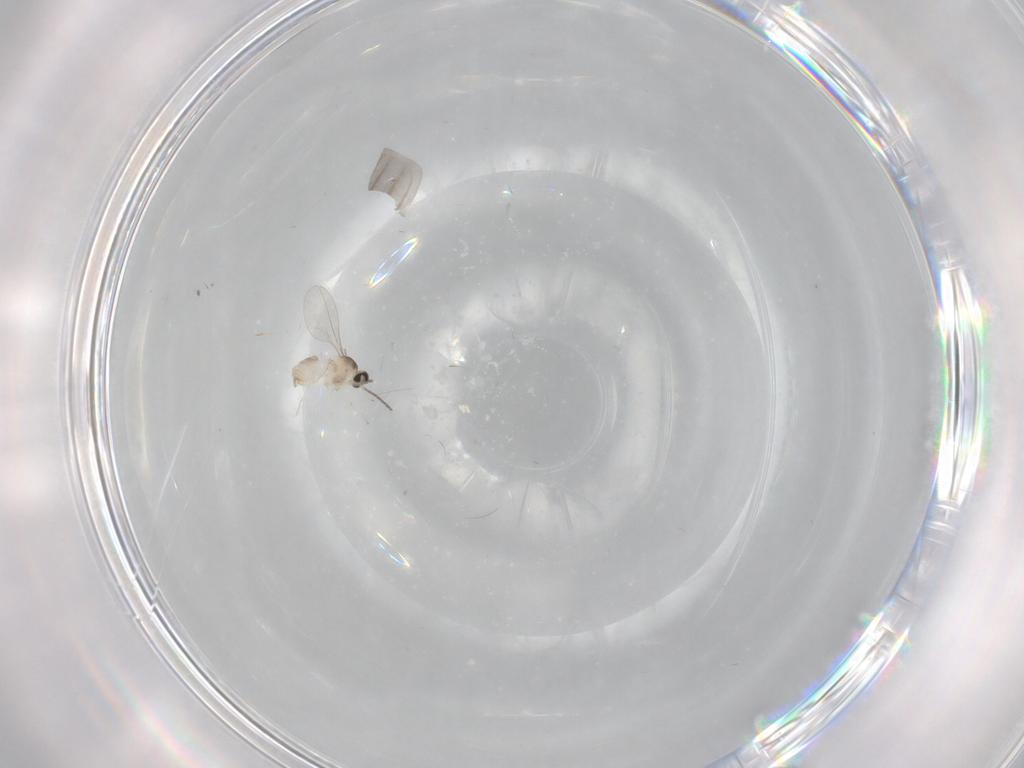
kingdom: Animalia
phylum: Arthropoda
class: Insecta
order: Diptera
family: Cecidomyiidae
